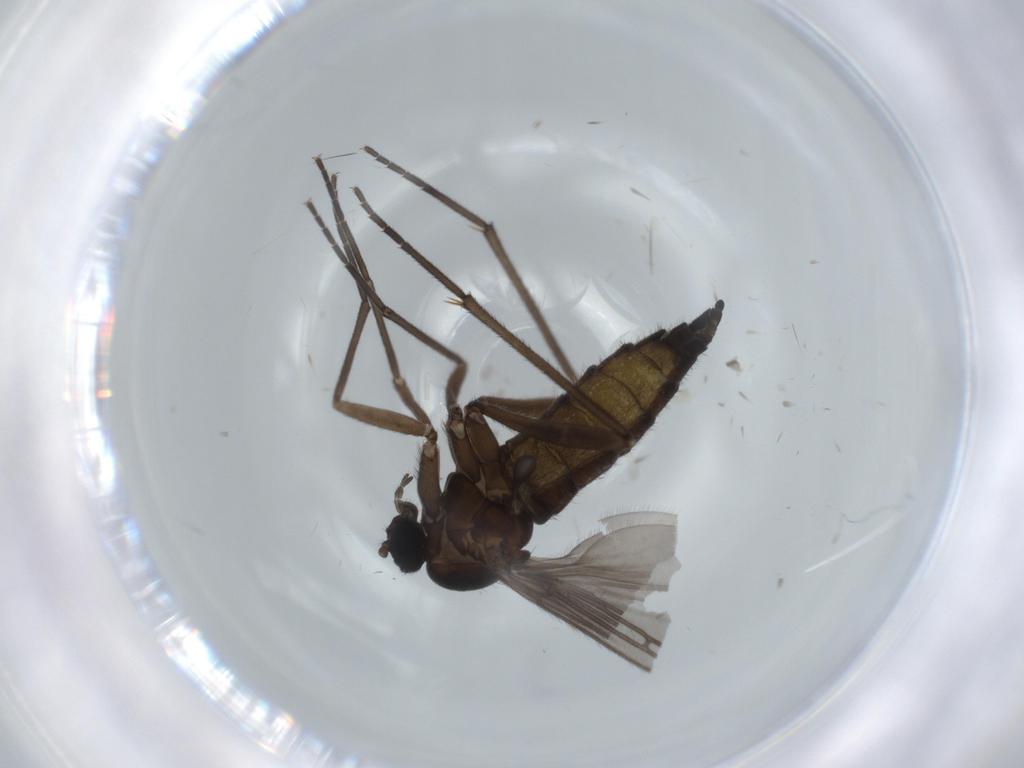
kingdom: Animalia
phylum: Arthropoda
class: Insecta
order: Diptera
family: Sciaridae
